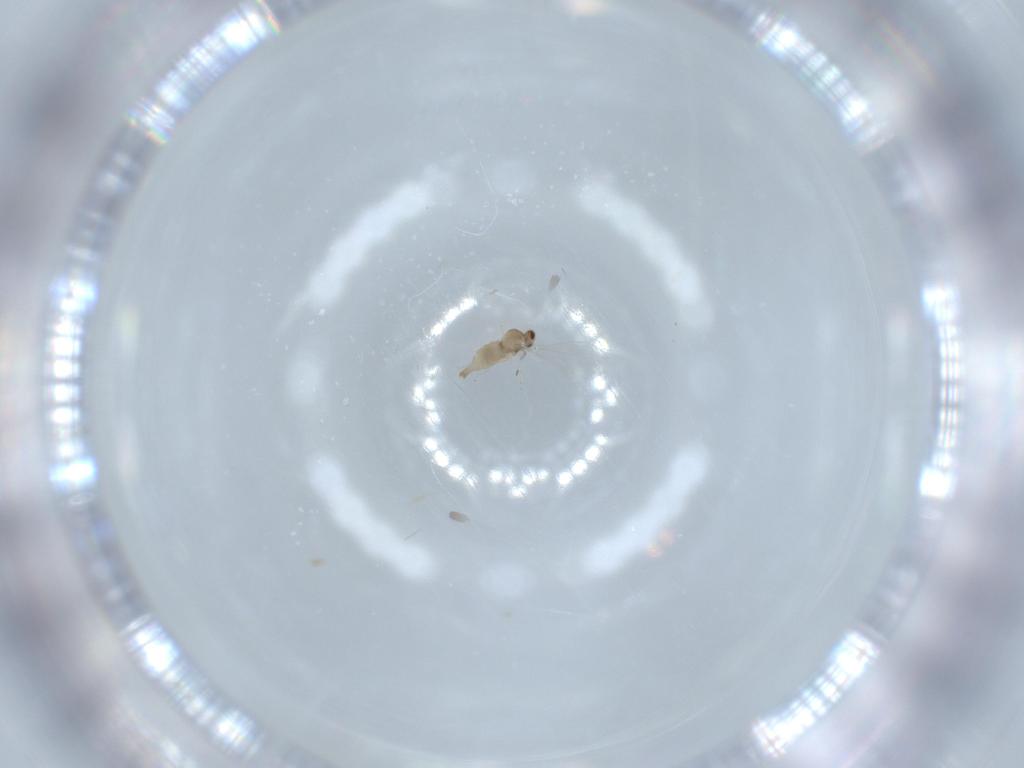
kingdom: Animalia
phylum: Arthropoda
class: Insecta
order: Diptera
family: Cecidomyiidae
